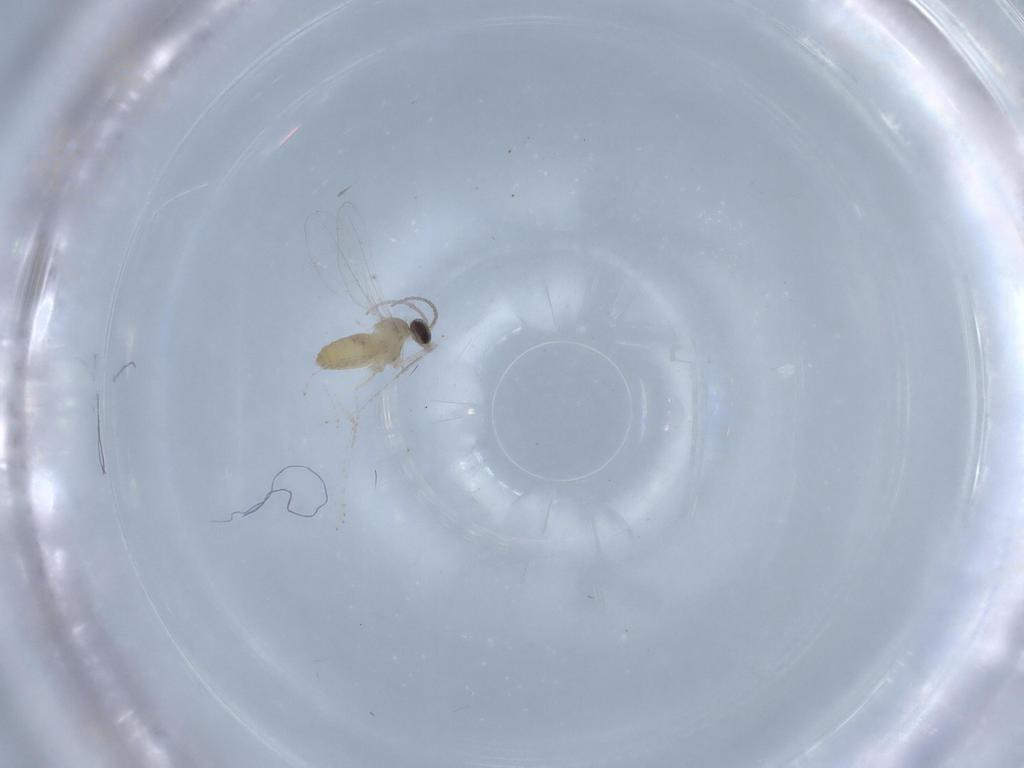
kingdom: Animalia
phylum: Arthropoda
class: Insecta
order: Diptera
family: Cecidomyiidae
